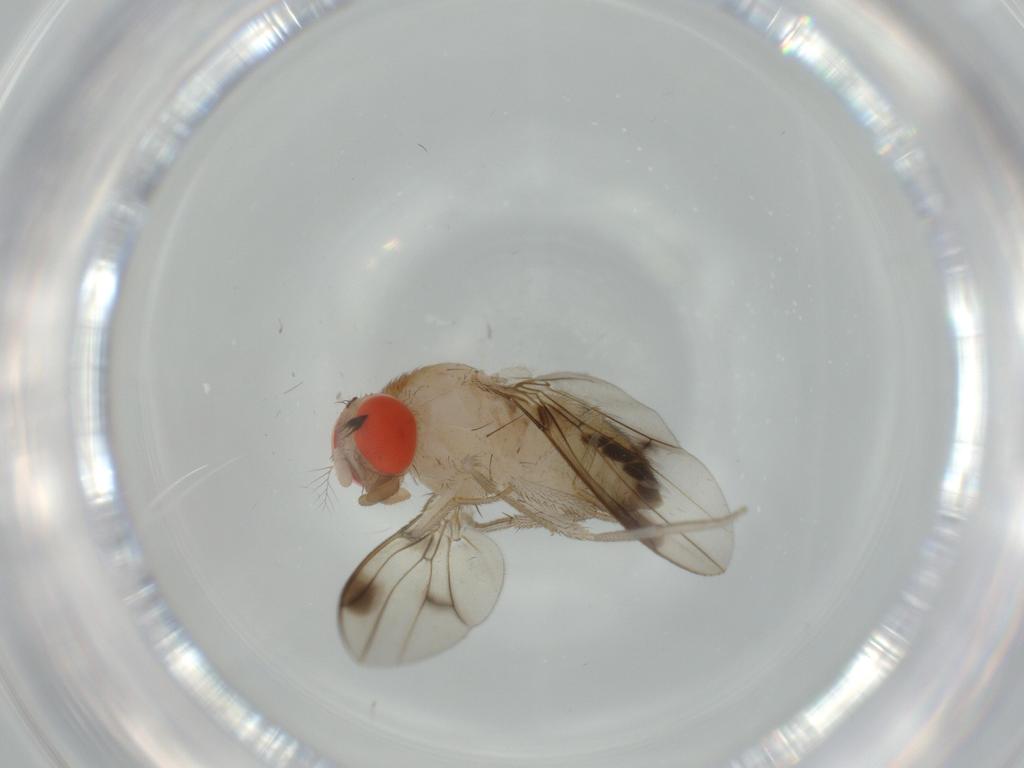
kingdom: Animalia
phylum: Arthropoda
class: Insecta
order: Diptera
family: Drosophilidae
